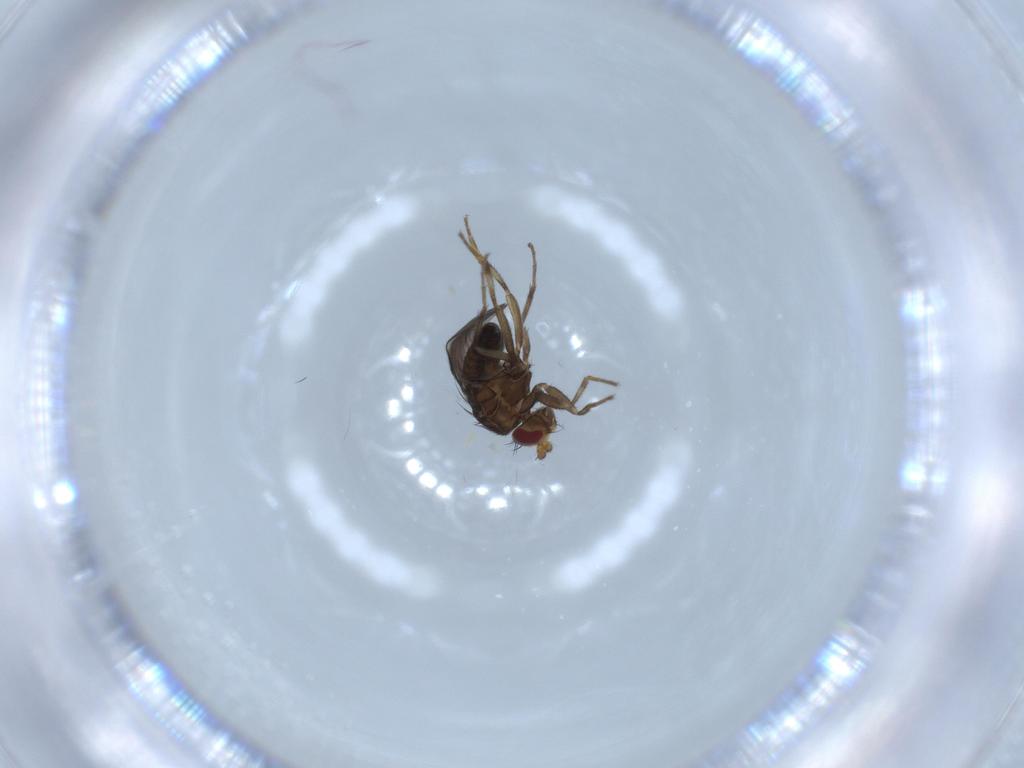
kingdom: Animalia
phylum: Arthropoda
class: Insecta
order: Diptera
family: Sphaeroceridae
